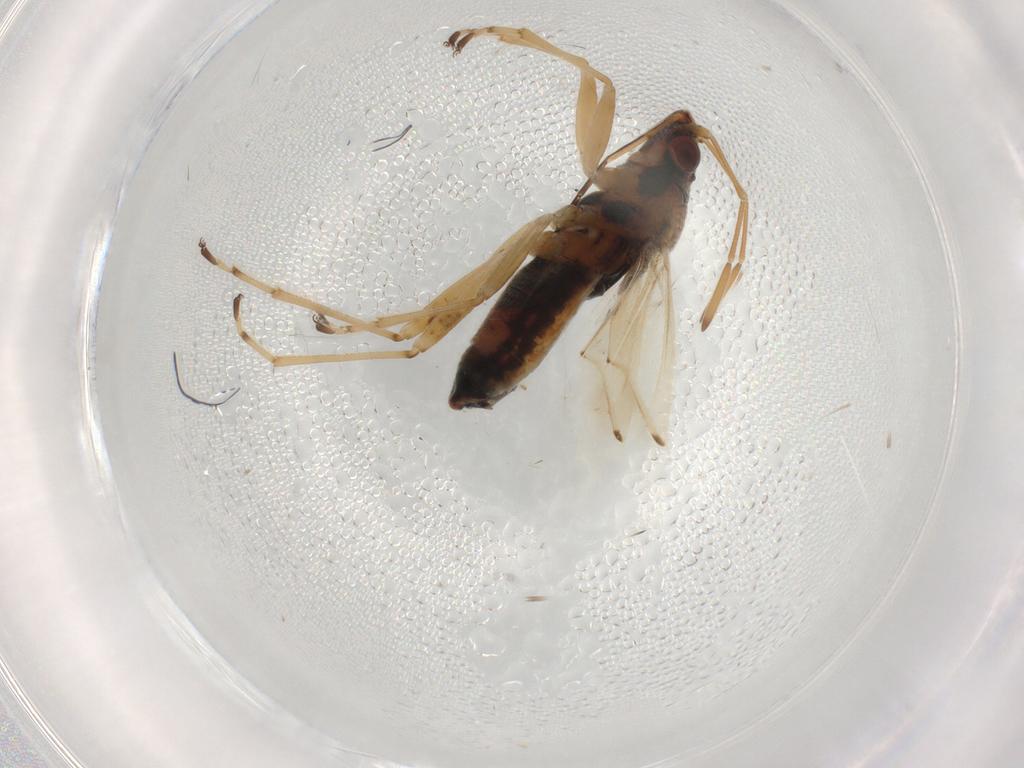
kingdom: Animalia
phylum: Arthropoda
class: Insecta
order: Hemiptera
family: Lygaeidae
